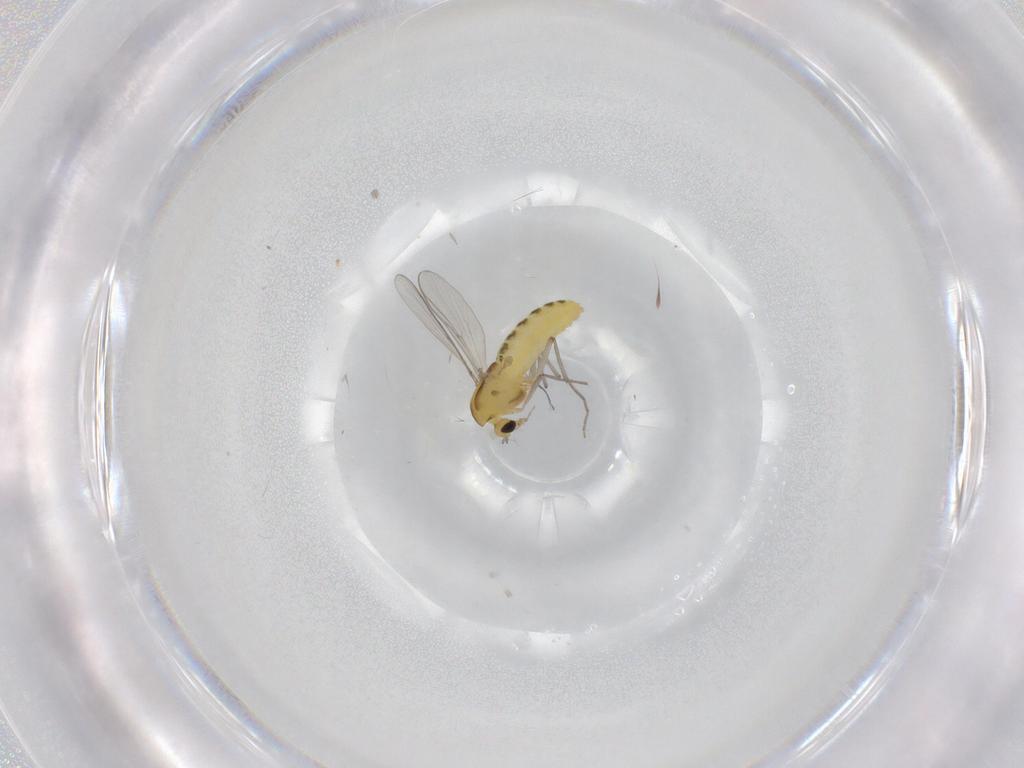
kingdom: Animalia
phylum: Arthropoda
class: Insecta
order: Diptera
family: Chironomidae
